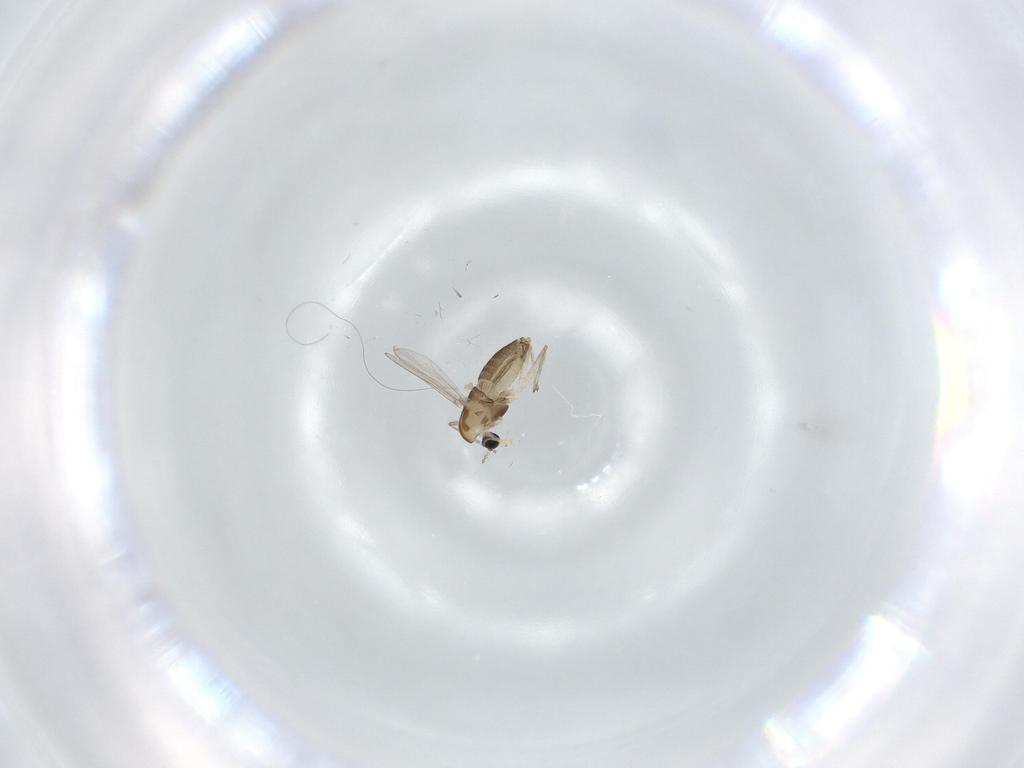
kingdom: Animalia
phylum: Arthropoda
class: Insecta
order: Diptera
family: Chironomidae
